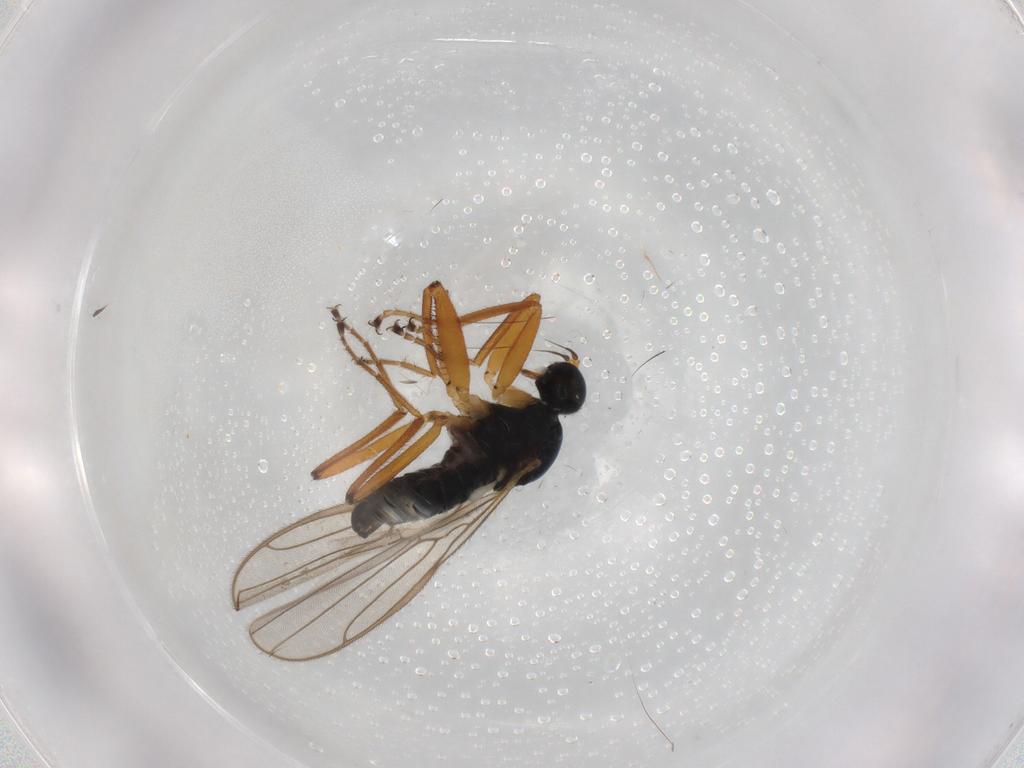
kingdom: Animalia
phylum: Arthropoda
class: Insecta
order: Diptera
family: Hybotidae
